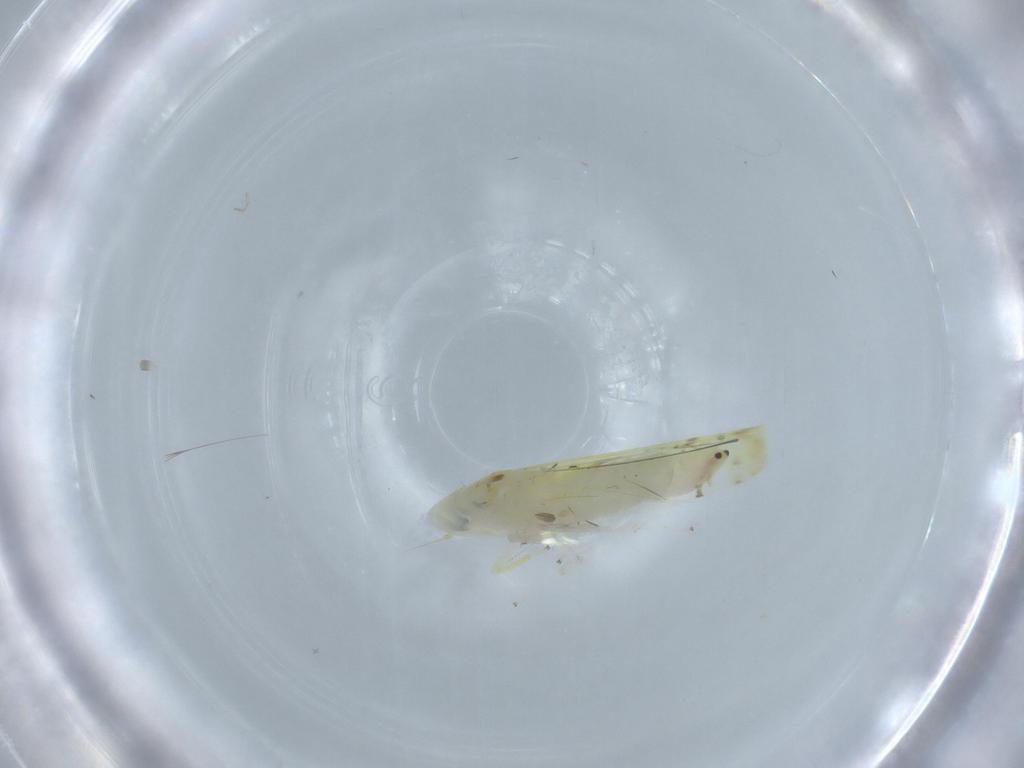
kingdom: Animalia
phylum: Arthropoda
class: Insecta
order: Hemiptera
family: Cicadellidae
